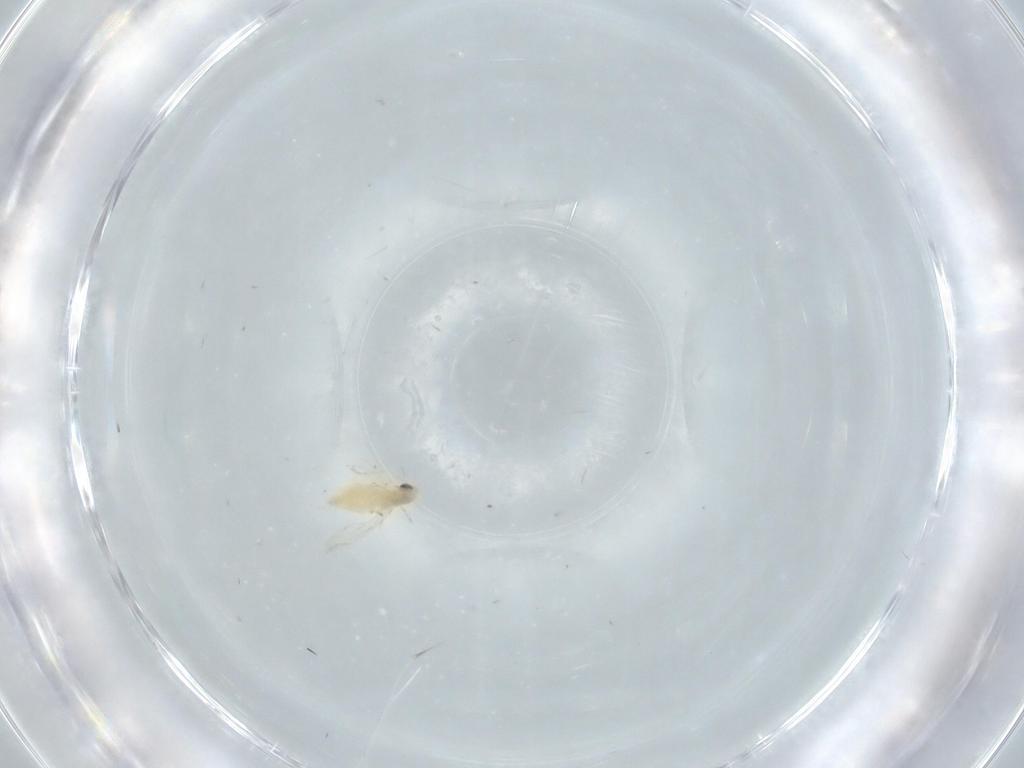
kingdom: Animalia
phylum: Arthropoda
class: Insecta
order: Diptera
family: Chironomidae
